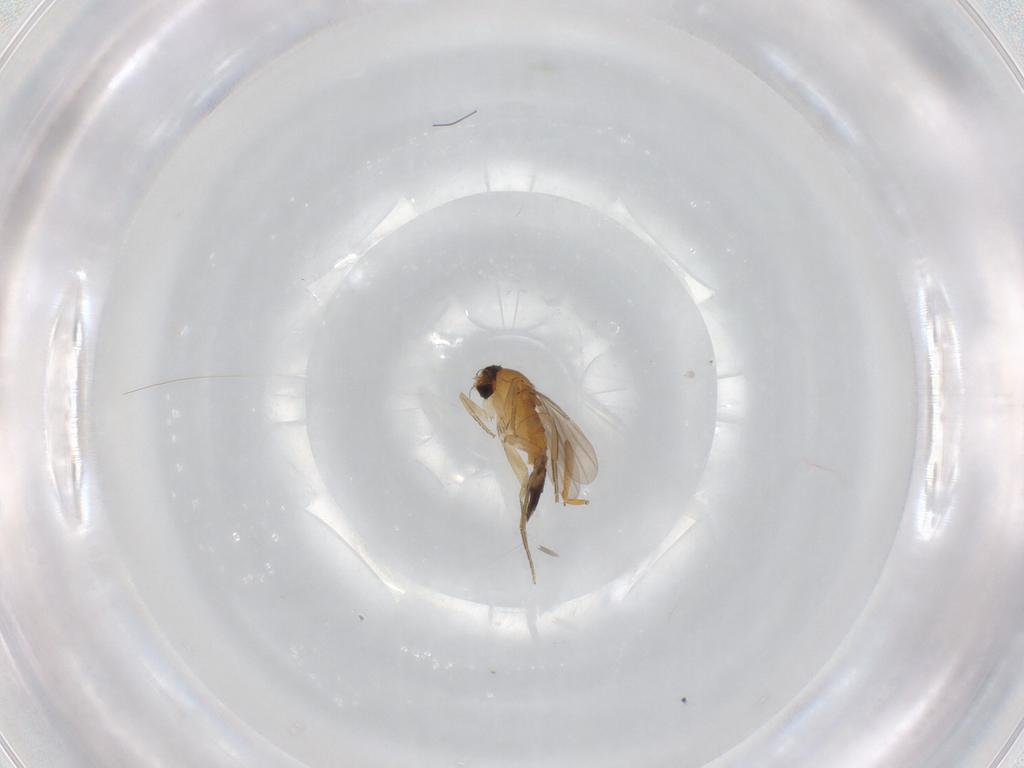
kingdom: Animalia
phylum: Arthropoda
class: Insecta
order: Diptera
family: Phoridae
